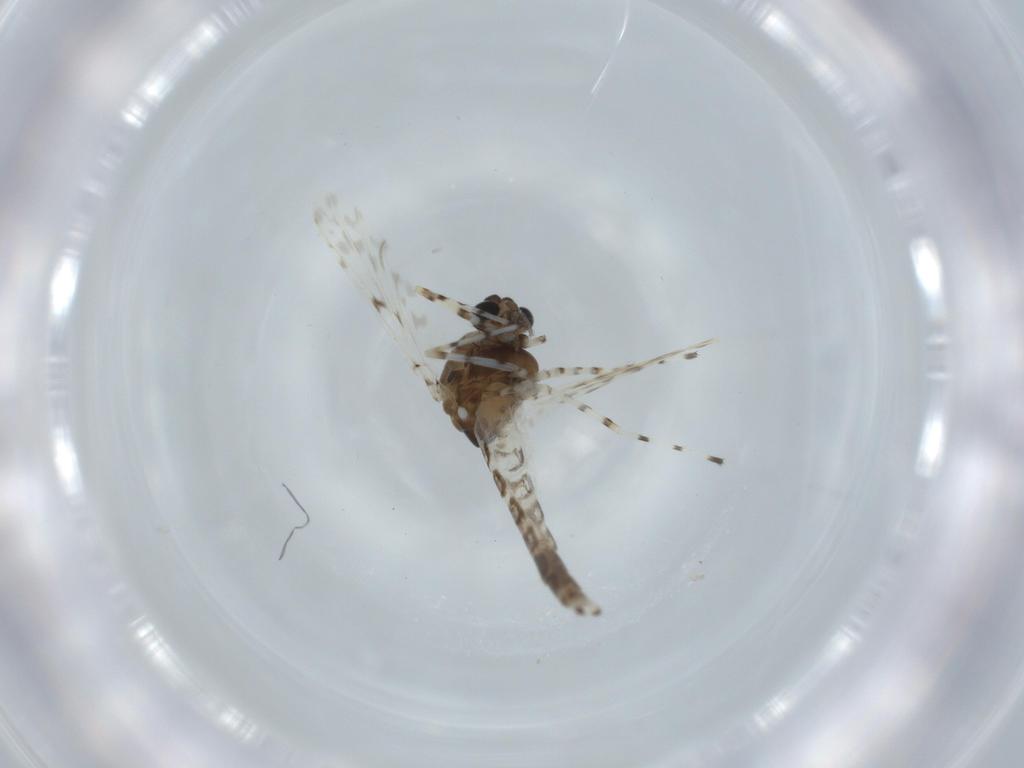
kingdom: Animalia
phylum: Arthropoda
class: Insecta
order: Diptera
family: Chironomidae
